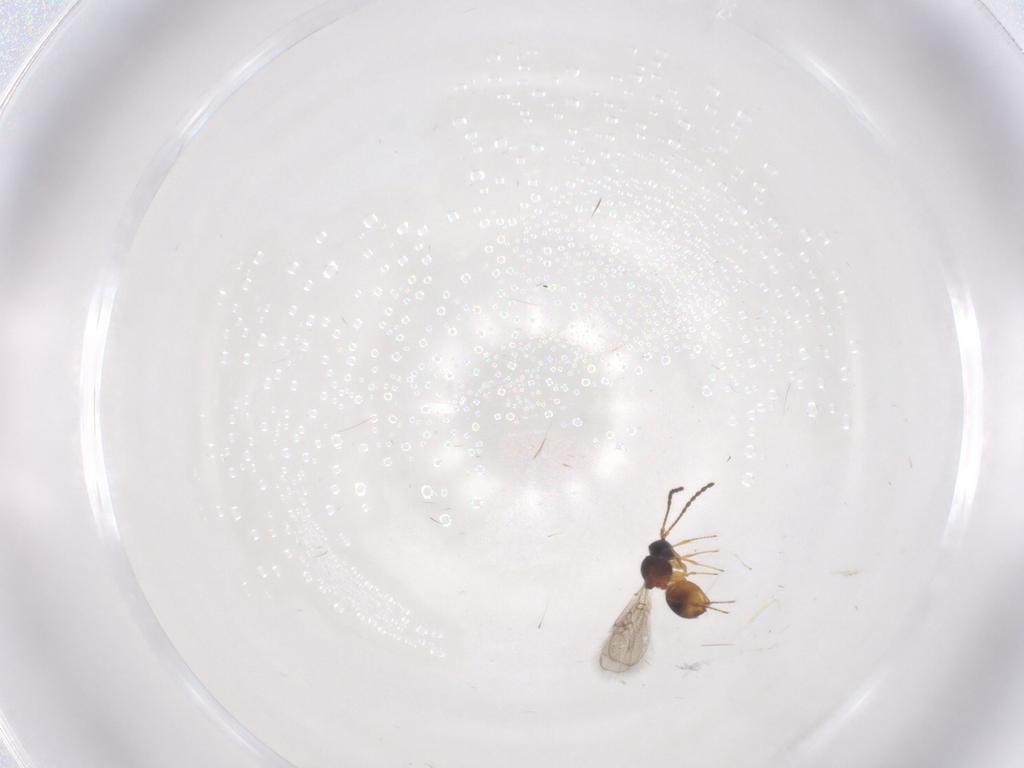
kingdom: Animalia
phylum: Arthropoda
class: Insecta
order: Hymenoptera
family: Figitidae
